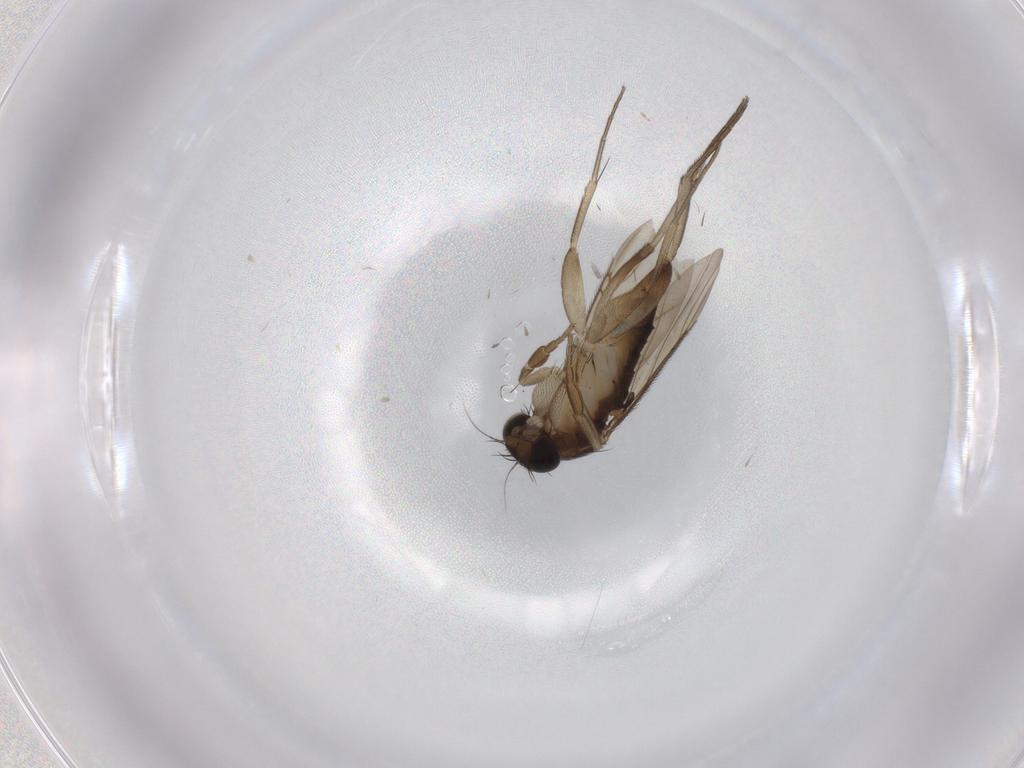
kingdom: Animalia
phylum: Arthropoda
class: Insecta
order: Diptera
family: Phoridae
